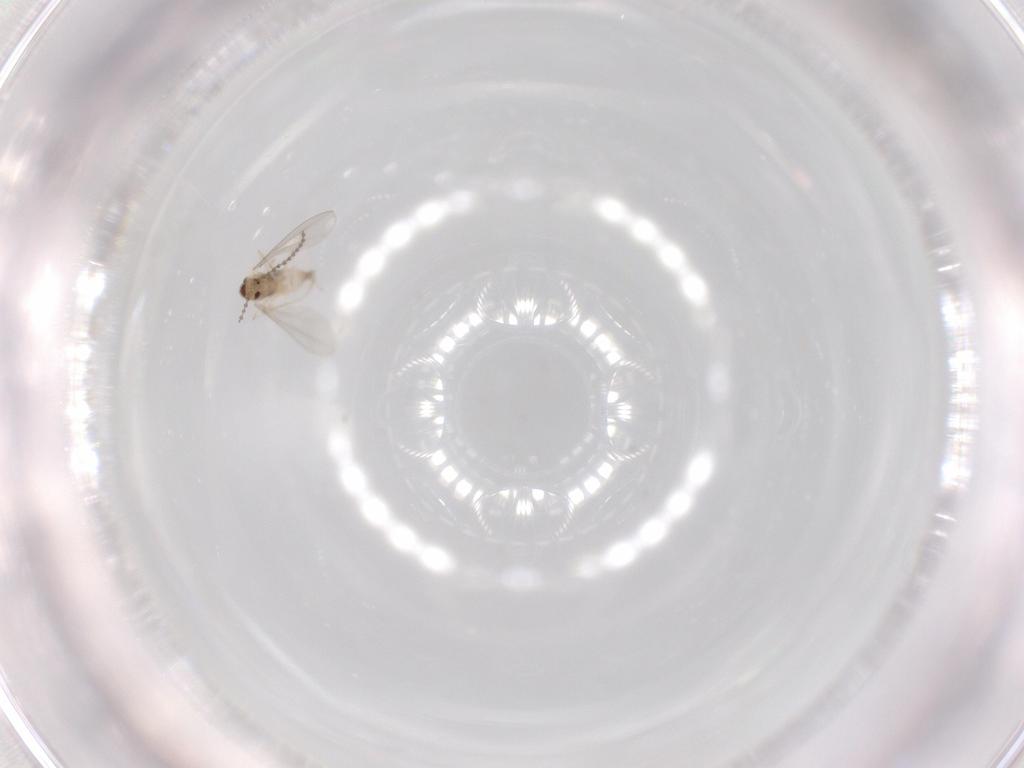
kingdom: Animalia
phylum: Arthropoda
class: Insecta
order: Diptera
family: Cecidomyiidae
